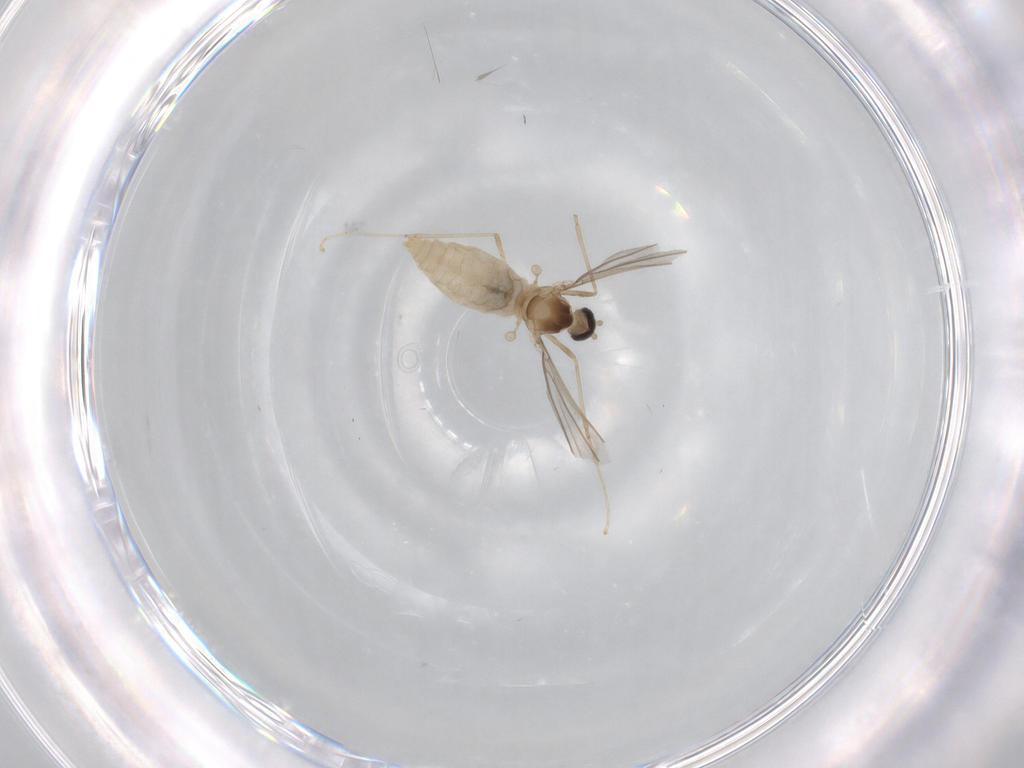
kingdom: Animalia
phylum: Arthropoda
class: Insecta
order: Diptera
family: Cecidomyiidae
